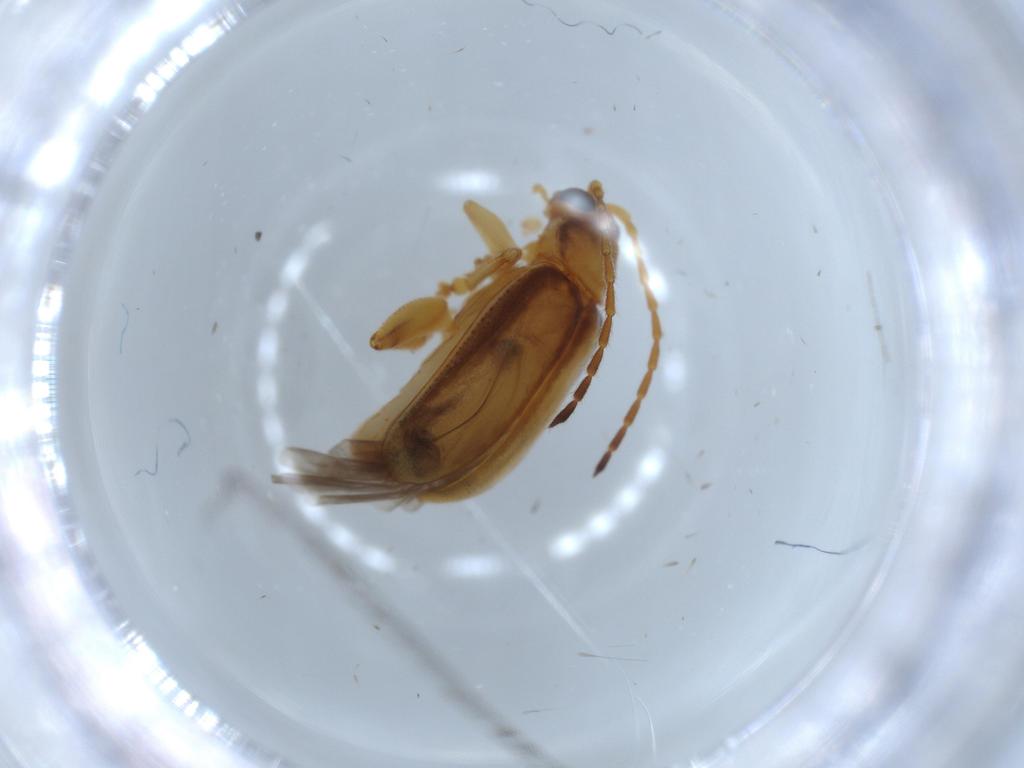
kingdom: Animalia
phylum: Arthropoda
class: Insecta
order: Coleoptera
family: Chrysomelidae
